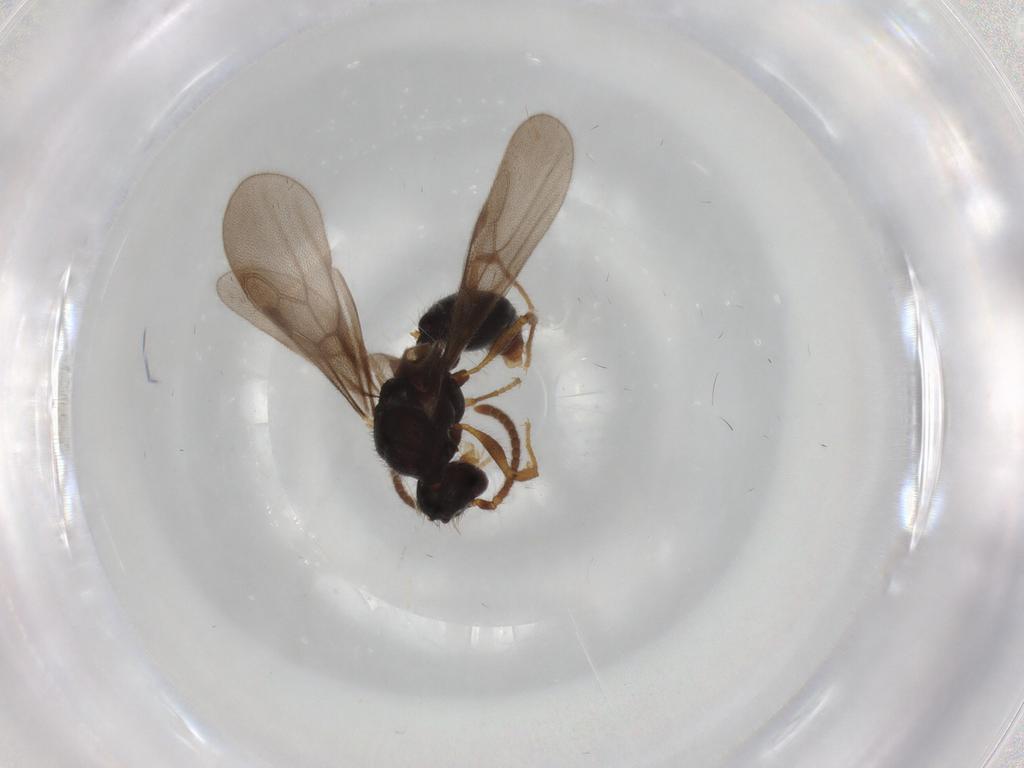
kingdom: Animalia
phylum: Arthropoda
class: Insecta
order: Hymenoptera
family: Formicidae
